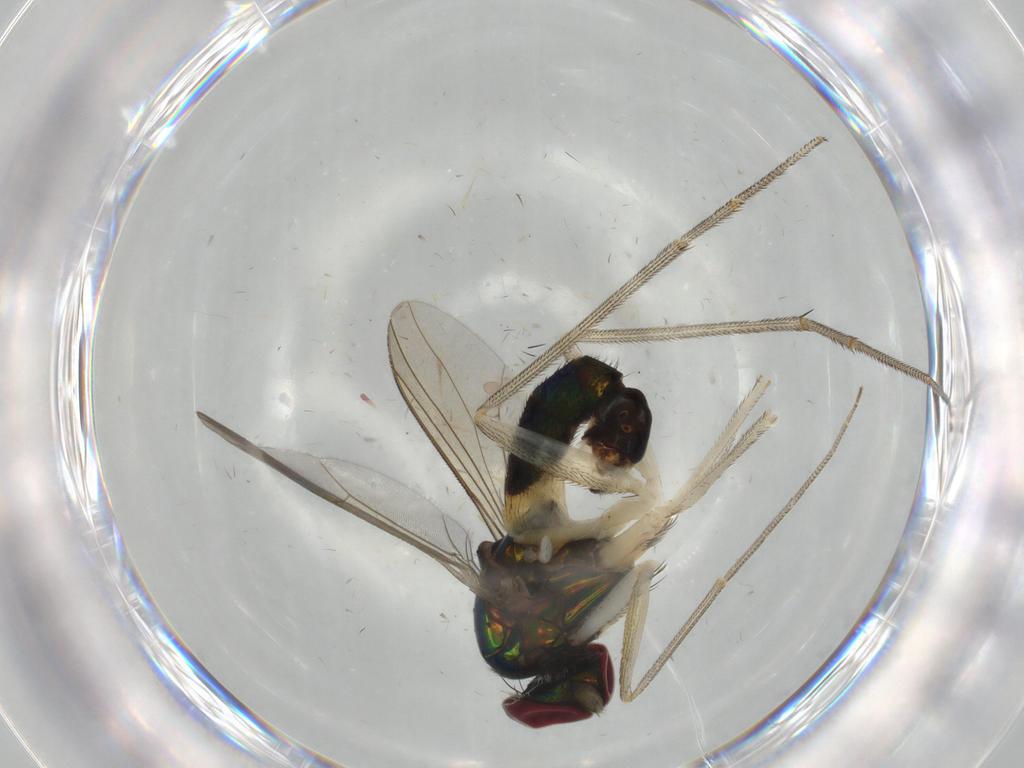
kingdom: Animalia
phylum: Arthropoda
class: Insecta
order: Diptera
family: Dolichopodidae
